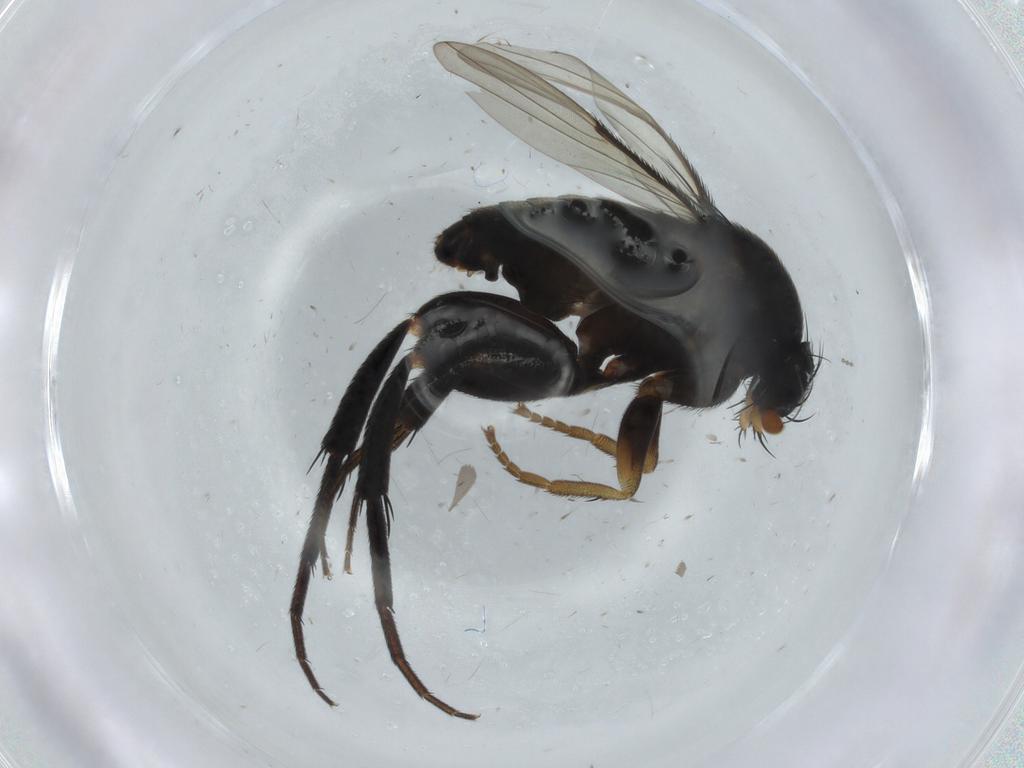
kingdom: Animalia
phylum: Arthropoda
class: Insecta
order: Diptera
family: Phoridae
